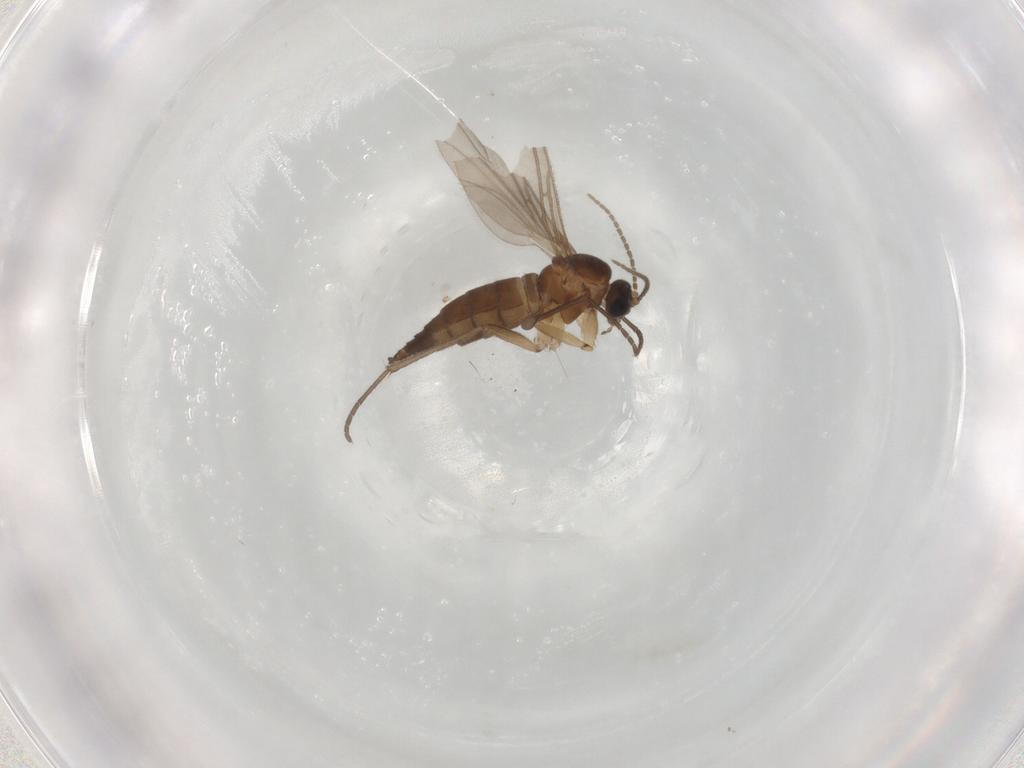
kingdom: Animalia
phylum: Arthropoda
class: Insecta
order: Diptera
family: Sciaridae
